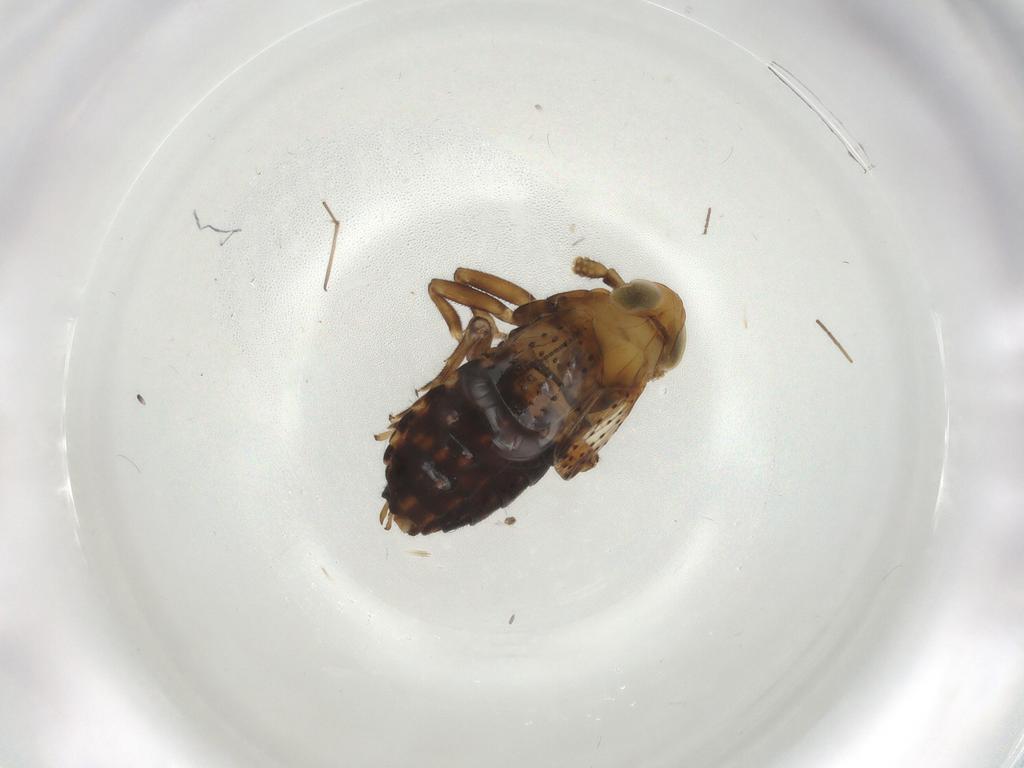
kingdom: Animalia
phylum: Arthropoda
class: Insecta
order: Hemiptera
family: Delphacidae
